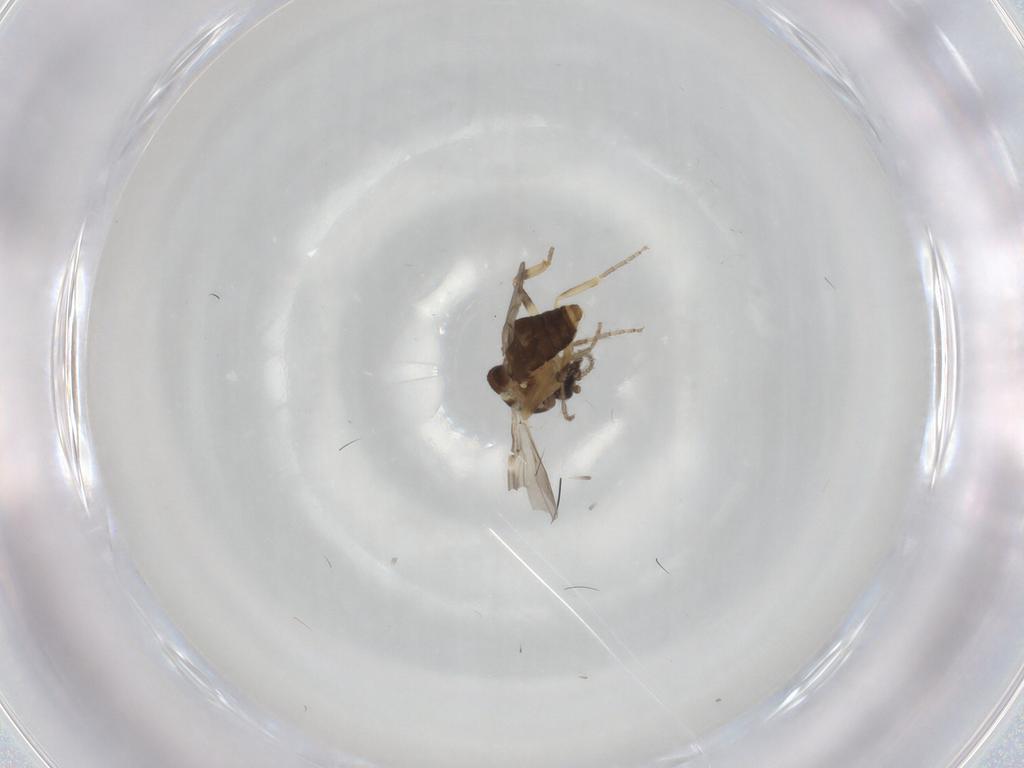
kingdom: Animalia
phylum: Arthropoda
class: Insecta
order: Diptera
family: Ceratopogonidae
